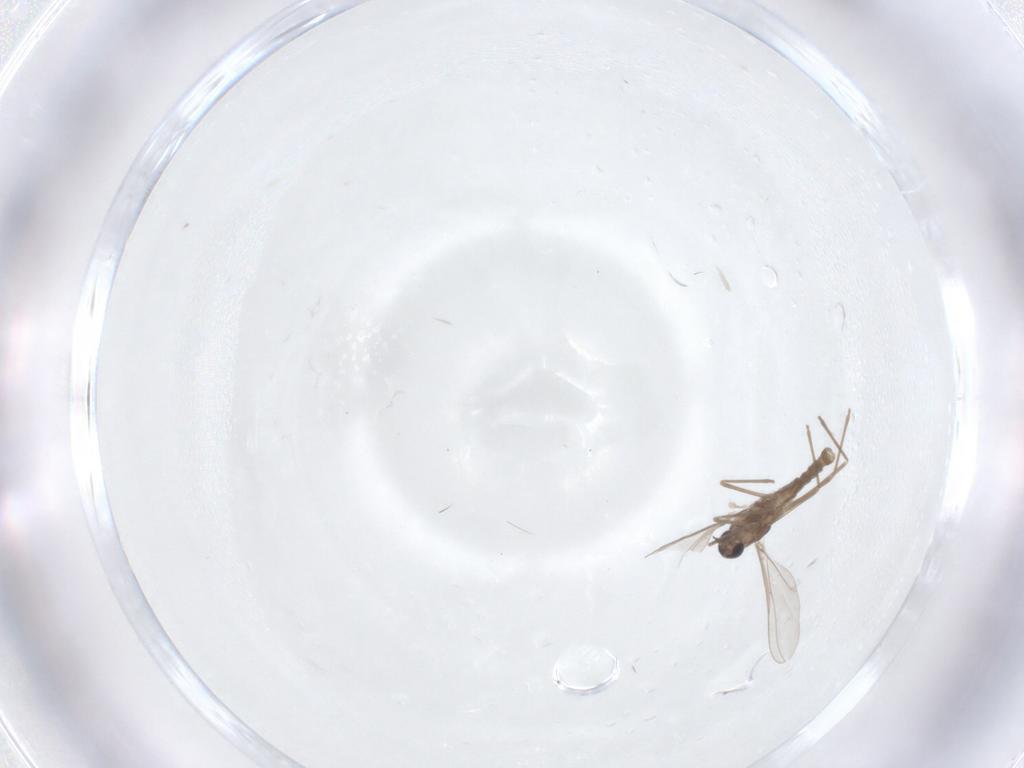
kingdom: Animalia
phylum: Arthropoda
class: Insecta
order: Diptera
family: Cecidomyiidae
